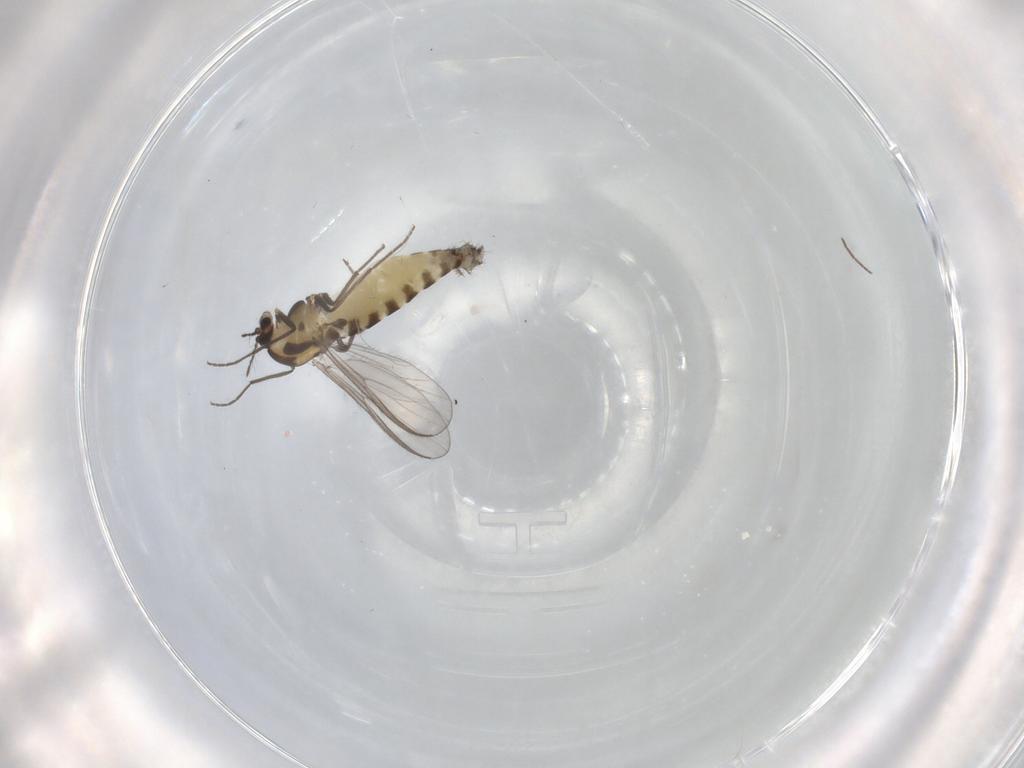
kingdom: Animalia
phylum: Arthropoda
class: Insecta
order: Diptera
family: Chironomidae
